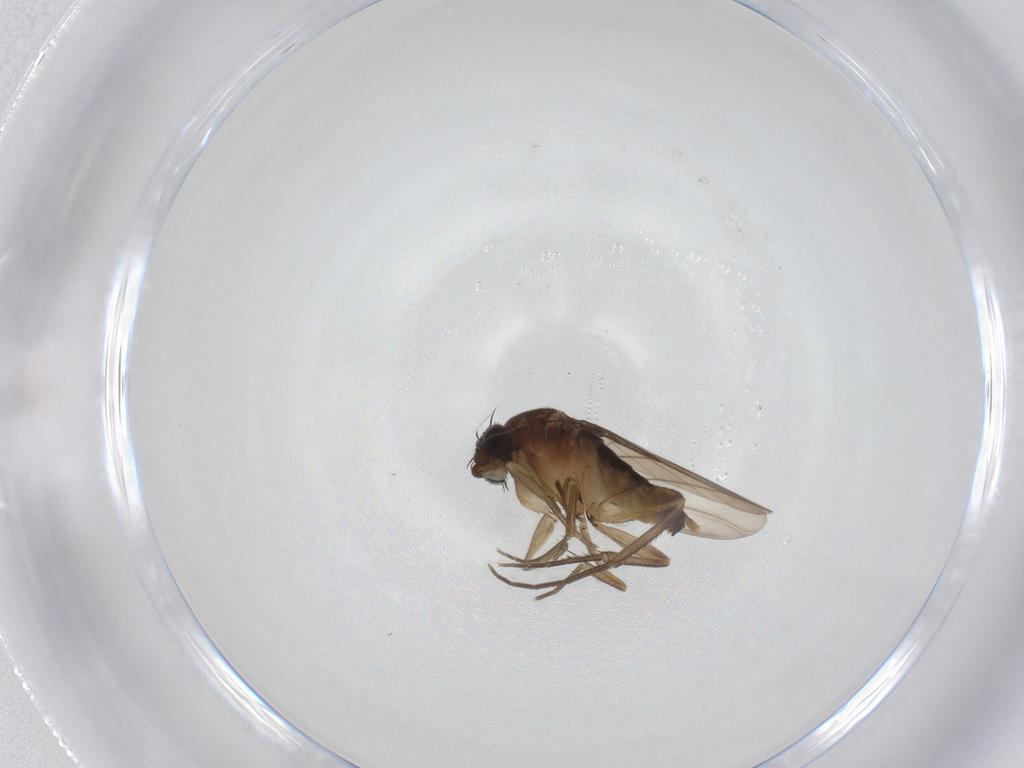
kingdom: Animalia
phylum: Arthropoda
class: Insecta
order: Diptera
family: Phoridae
